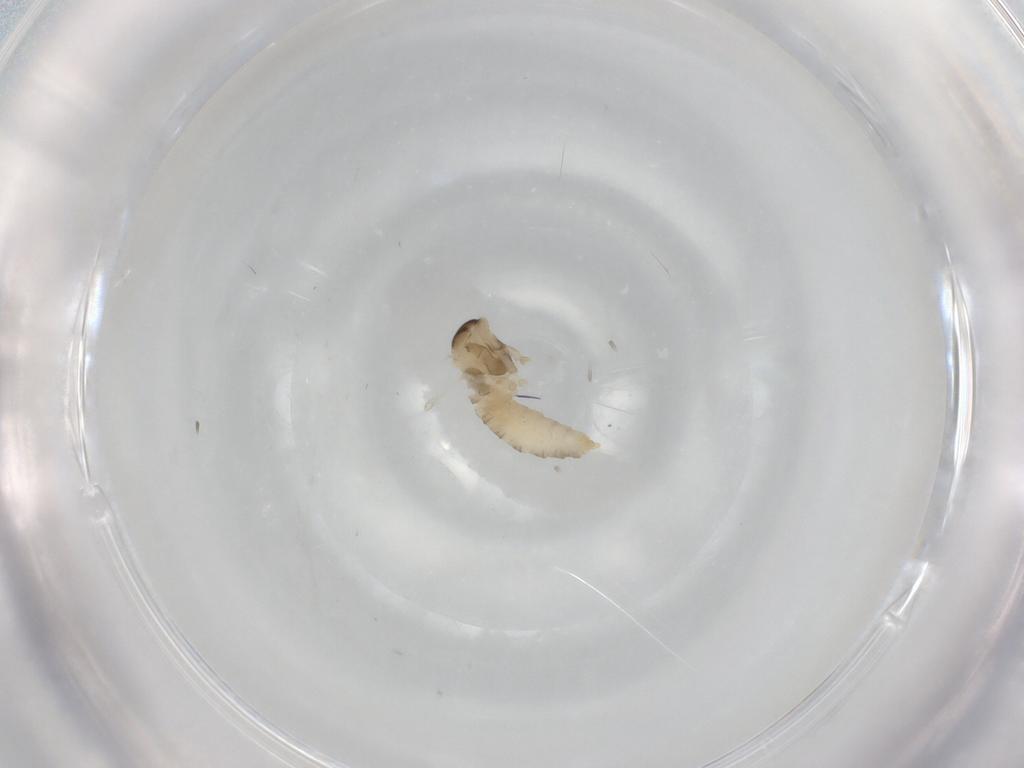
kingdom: Animalia
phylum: Arthropoda
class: Insecta
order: Diptera
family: Cecidomyiidae
